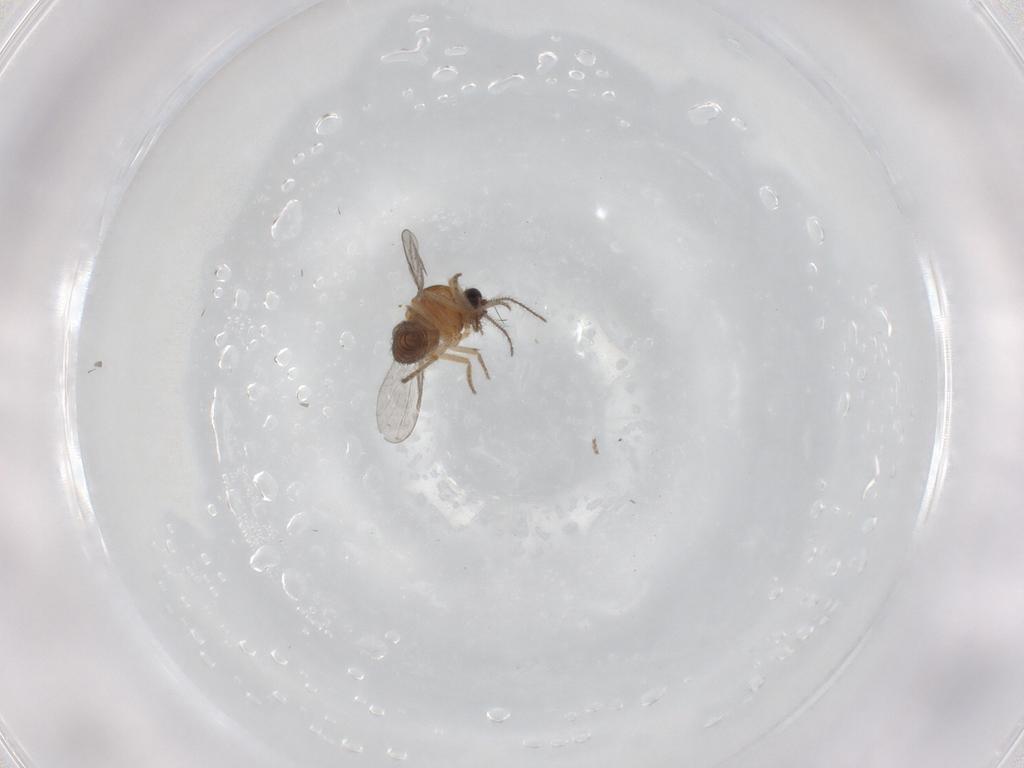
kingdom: Animalia
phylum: Arthropoda
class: Insecta
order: Diptera
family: Ceratopogonidae
